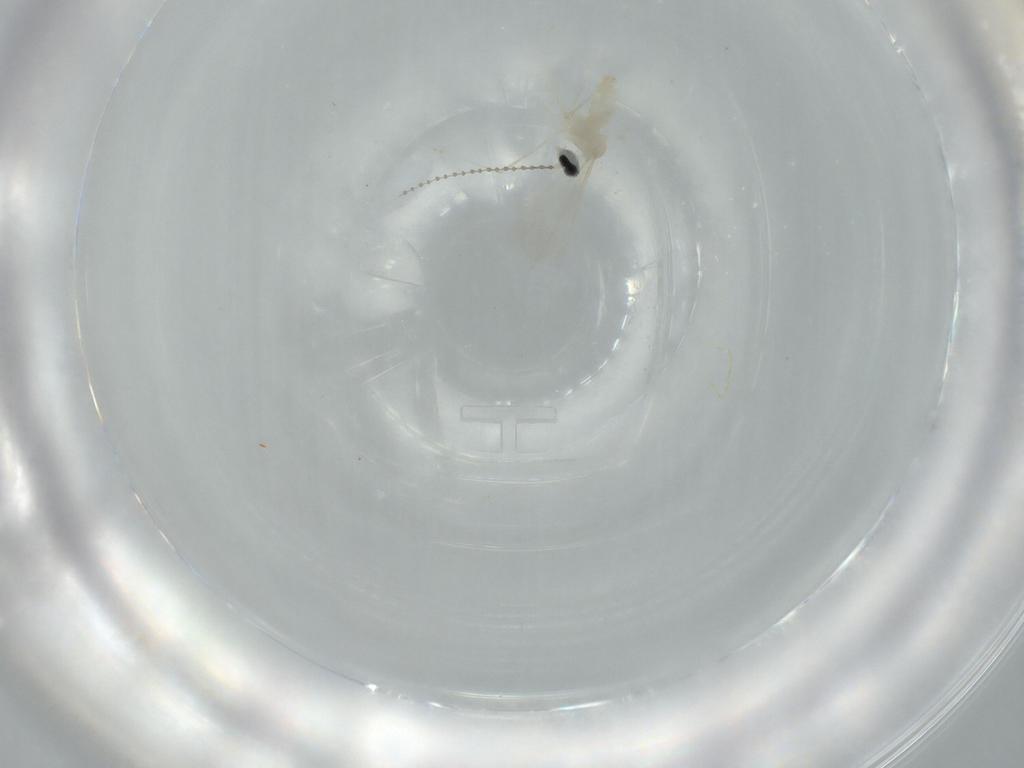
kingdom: Animalia
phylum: Arthropoda
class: Insecta
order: Diptera
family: Cecidomyiidae
